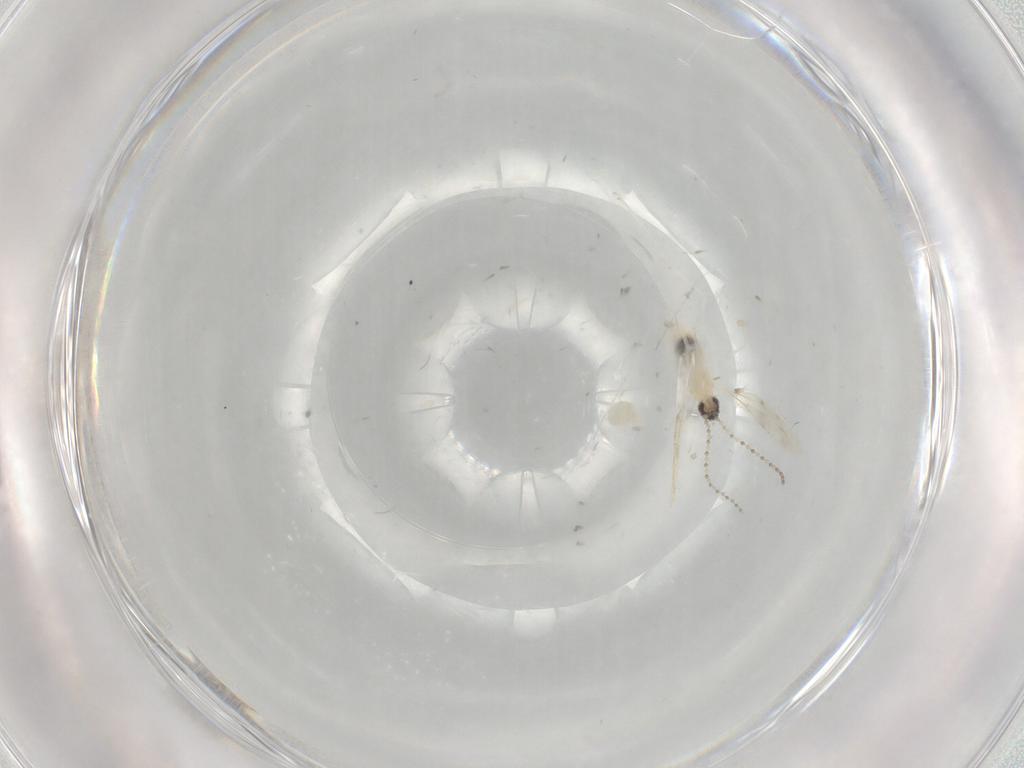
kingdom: Animalia
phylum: Arthropoda
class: Insecta
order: Diptera
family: Cecidomyiidae
